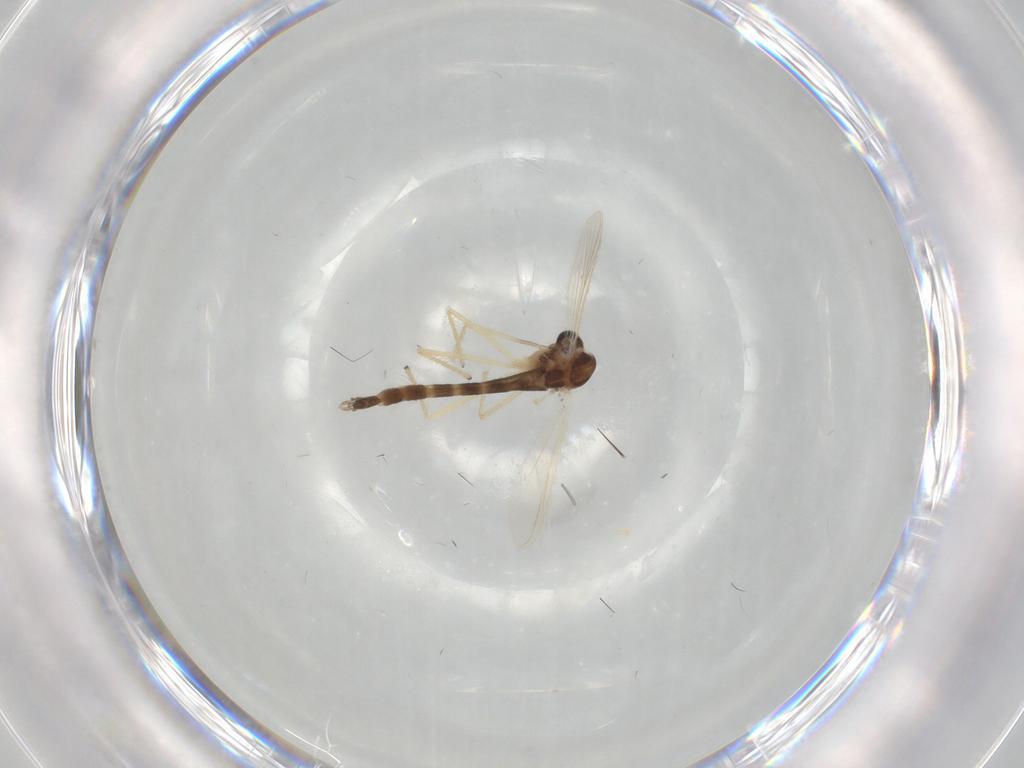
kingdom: Animalia
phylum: Arthropoda
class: Insecta
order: Diptera
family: Chironomidae
